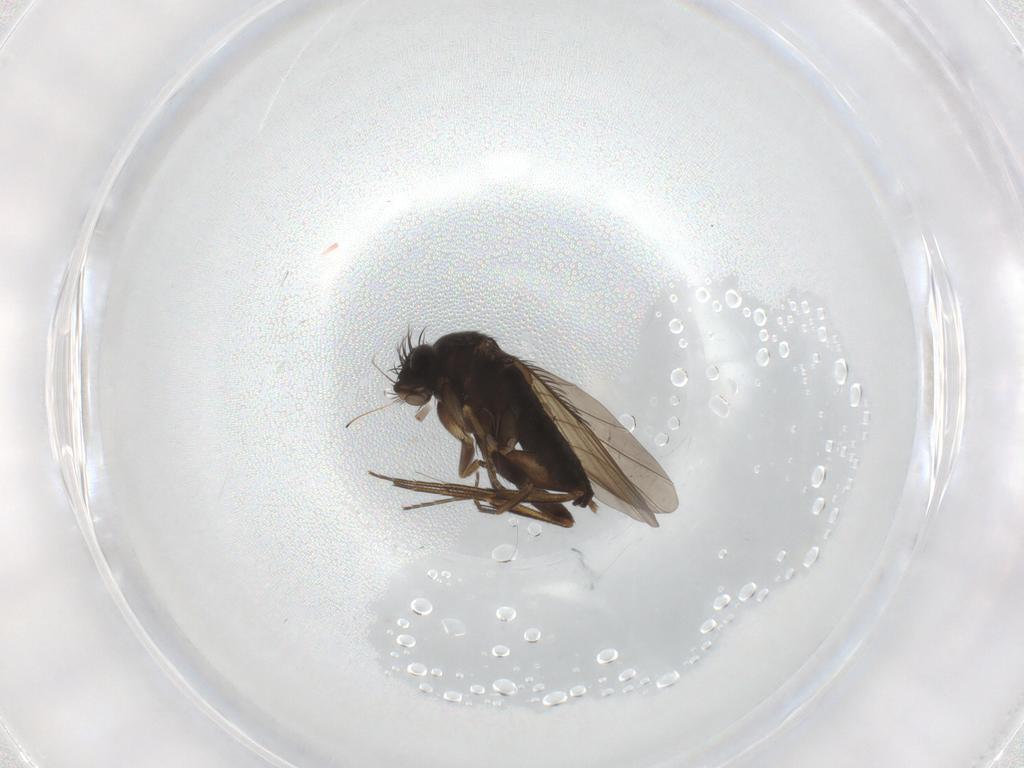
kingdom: Animalia
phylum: Arthropoda
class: Insecta
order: Diptera
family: Phoridae
